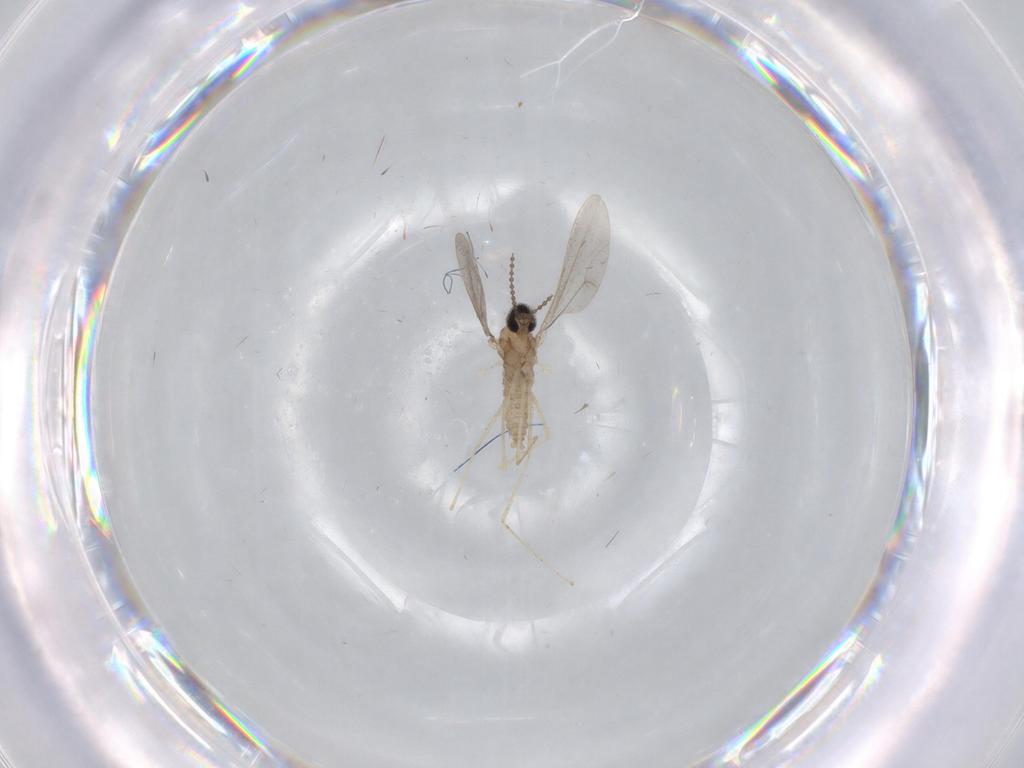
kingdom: Animalia
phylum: Arthropoda
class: Insecta
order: Diptera
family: Cecidomyiidae
